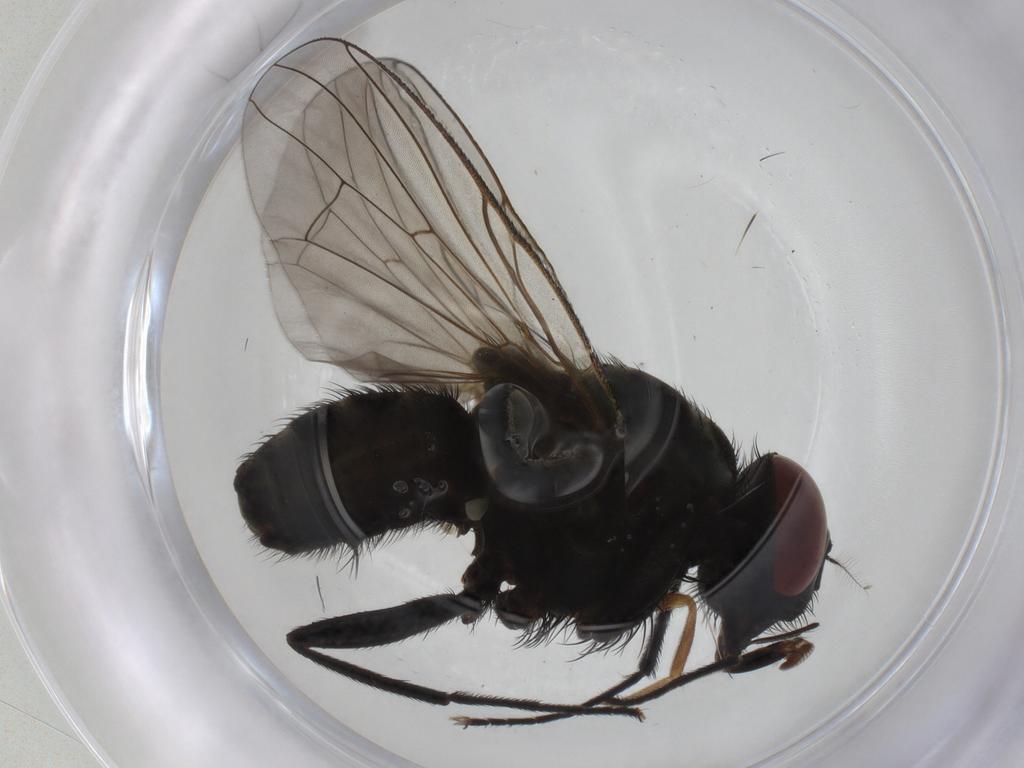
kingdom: Animalia
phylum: Arthropoda
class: Insecta
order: Diptera
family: Muscidae
